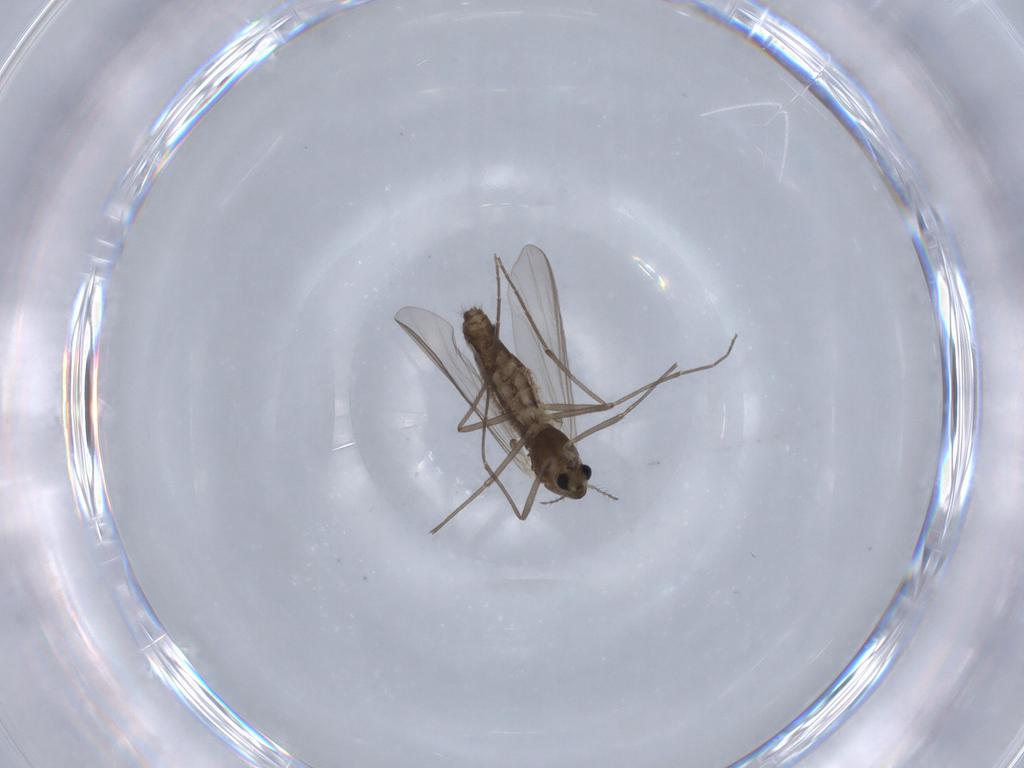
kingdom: Animalia
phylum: Arthropoda
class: Insecta
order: Diptera
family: Chironomidae
